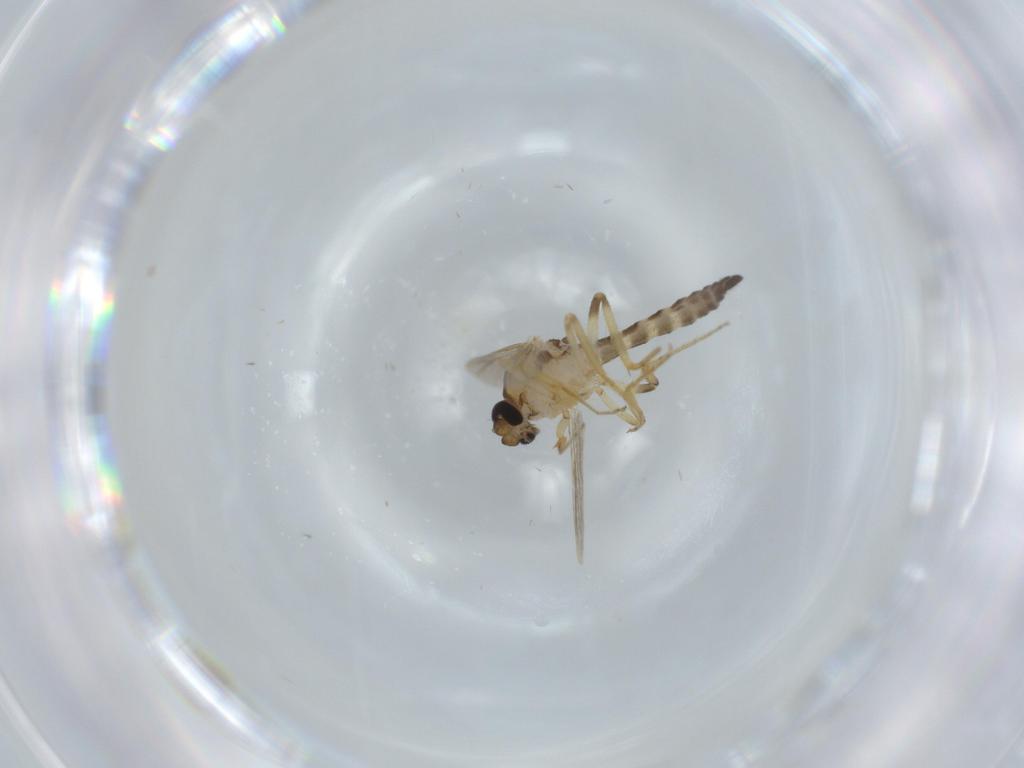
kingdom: Animalia
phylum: Arthropoda
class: Insecta
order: Diptera
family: Ceratopogonidae
